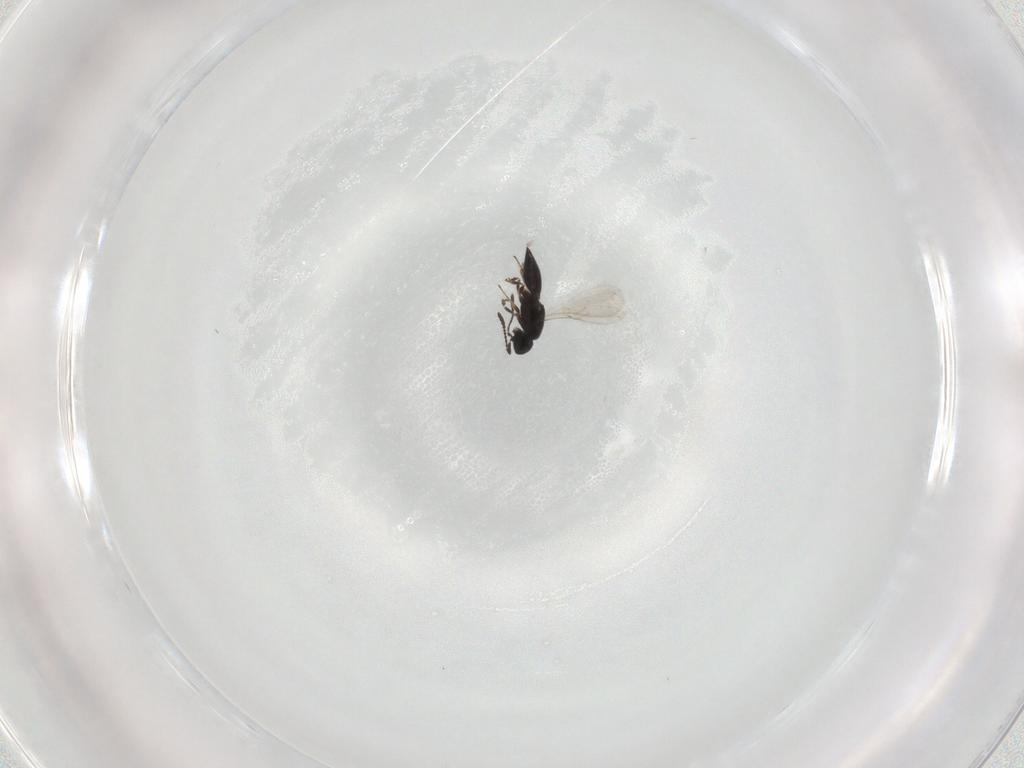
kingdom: Animalia
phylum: Arthropoda
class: Insecta
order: Hymenoptera
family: Scelionidae
